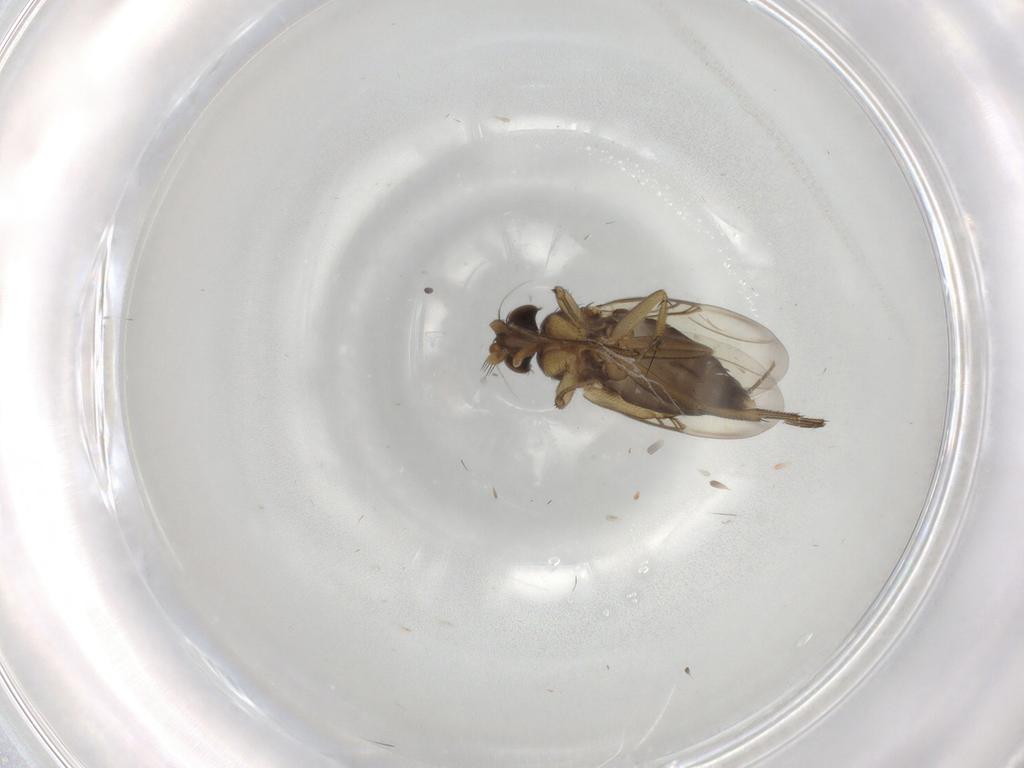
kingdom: Animalia
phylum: Arthropoda
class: Insecta
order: Diptera
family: Phoridae
